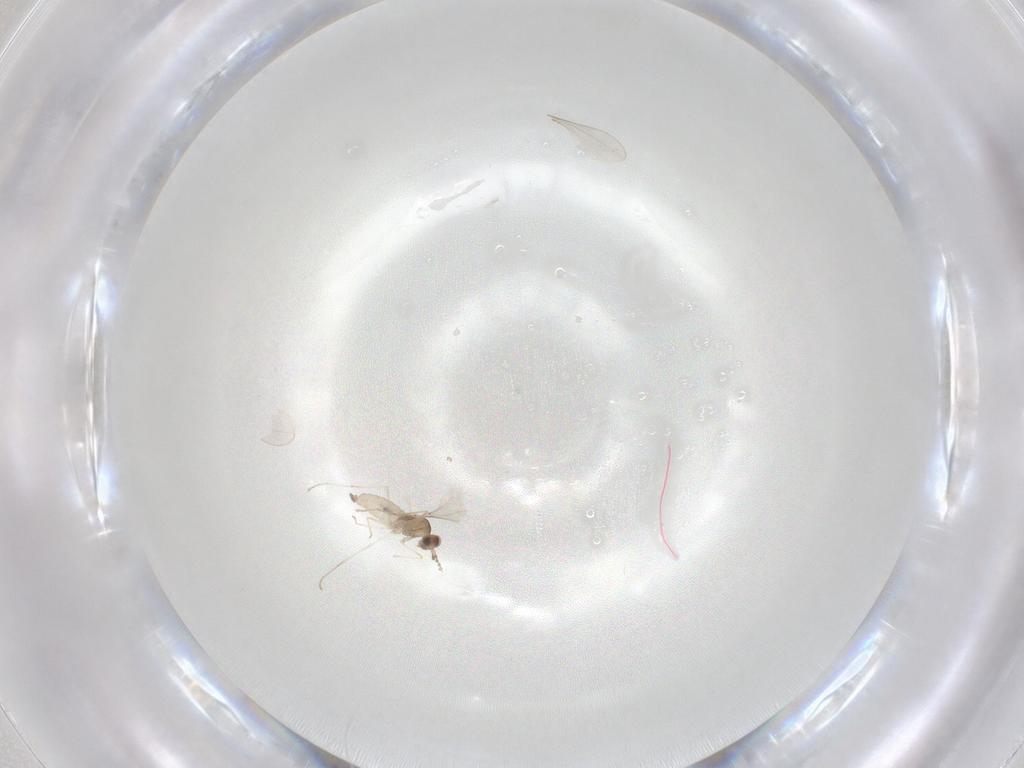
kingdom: Animalia
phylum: Arthropoda
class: Insecta
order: Diptera
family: Cecidomyiidae
